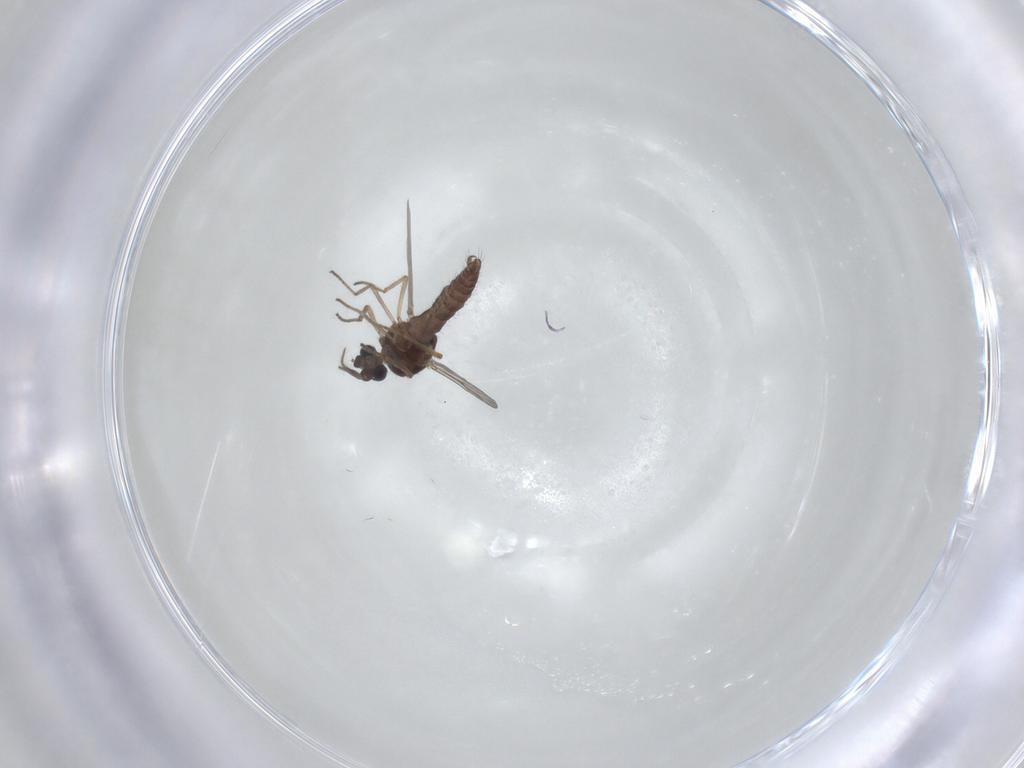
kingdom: Animalia
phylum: Arthropoda
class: Insecta
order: Diptera
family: Ceratopogonidae
